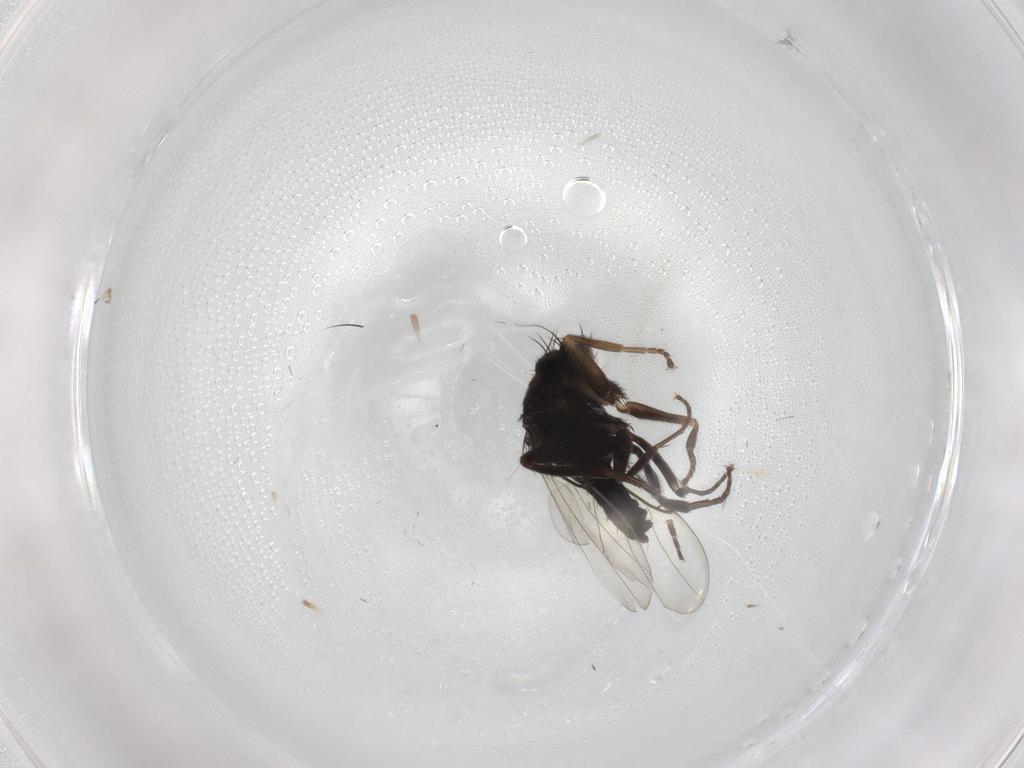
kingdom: Animalia
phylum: Arthropoda
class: Insecta
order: Diptera
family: Phoridae
